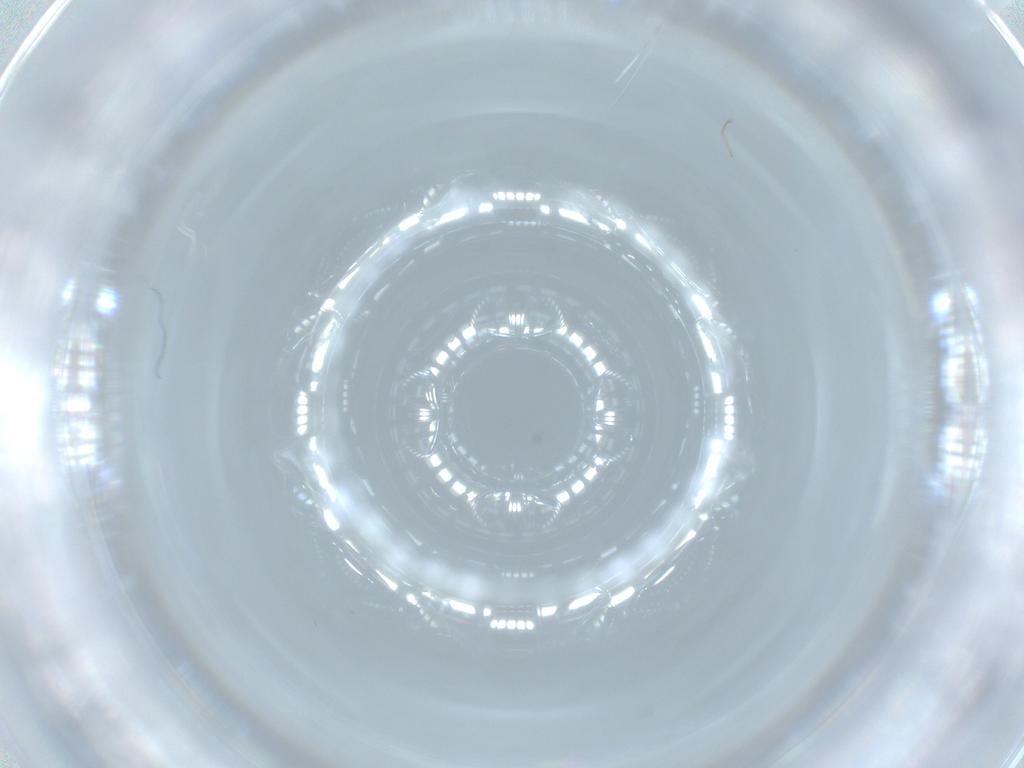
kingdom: Animalia
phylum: Arthropoda
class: Insecta
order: Diptera
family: Cecidomyiidae
